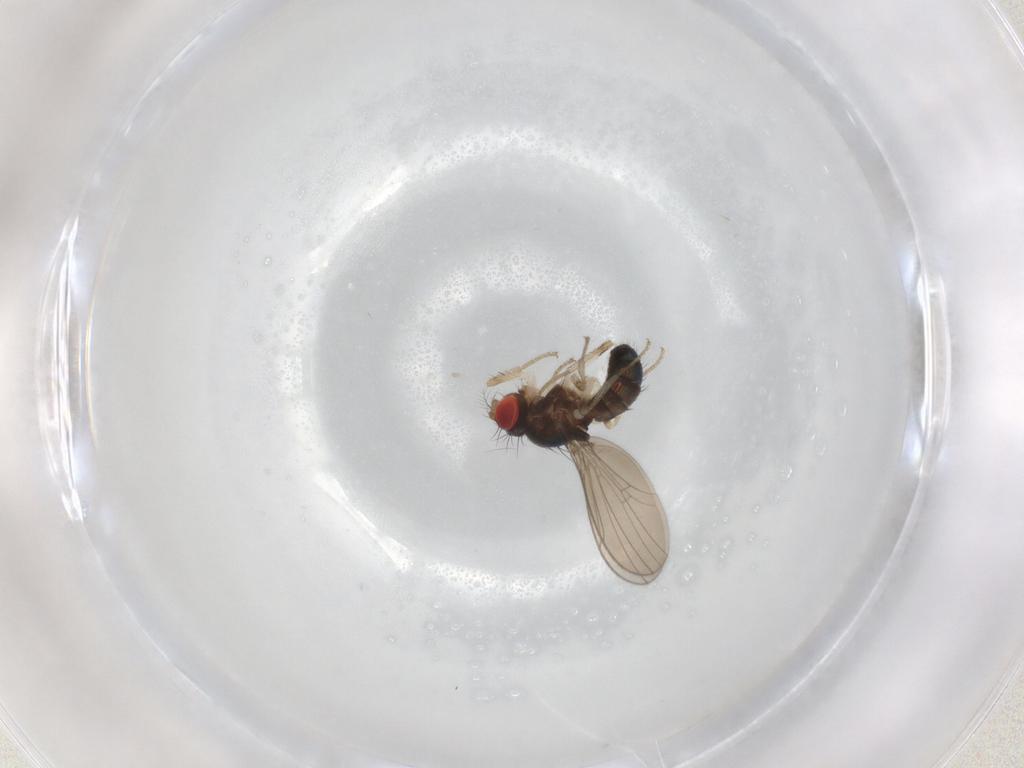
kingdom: Animalia
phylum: Arthropoda
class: Insecta
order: Diptera
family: Drosophilidae
